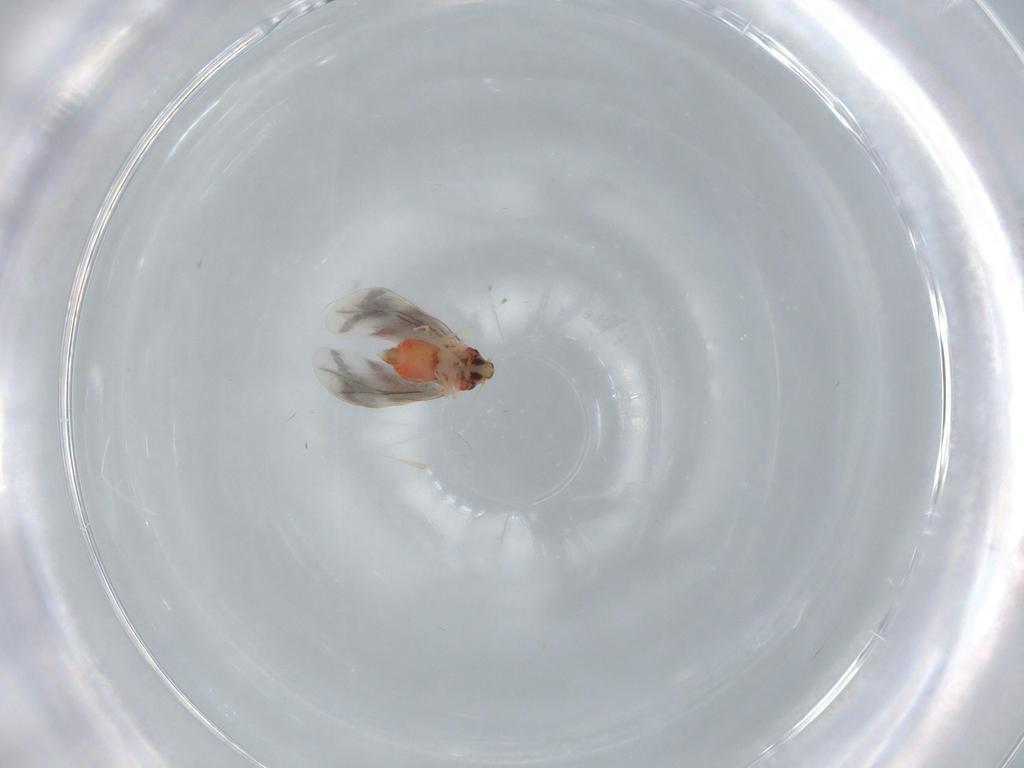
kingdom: Animalia
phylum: Arthropoda
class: Insecta
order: Hemiptera
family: Aleyrodidae
